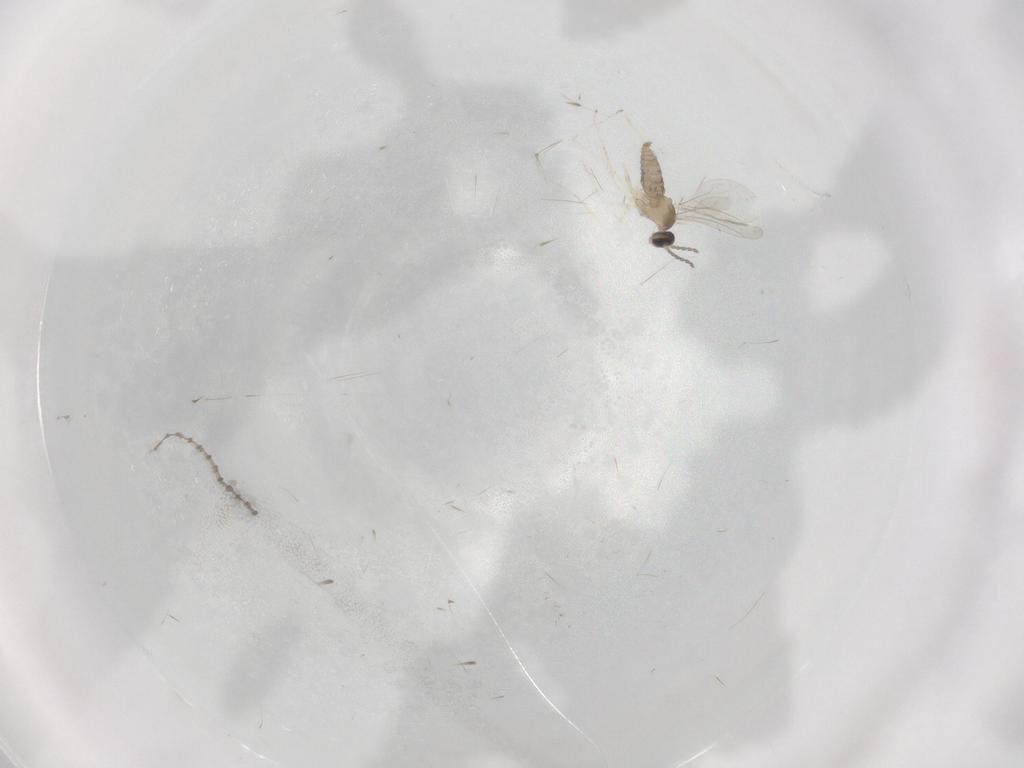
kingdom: Animalia
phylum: Arthropoda
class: Insecta
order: Diptera
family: Cecidomyiidae
